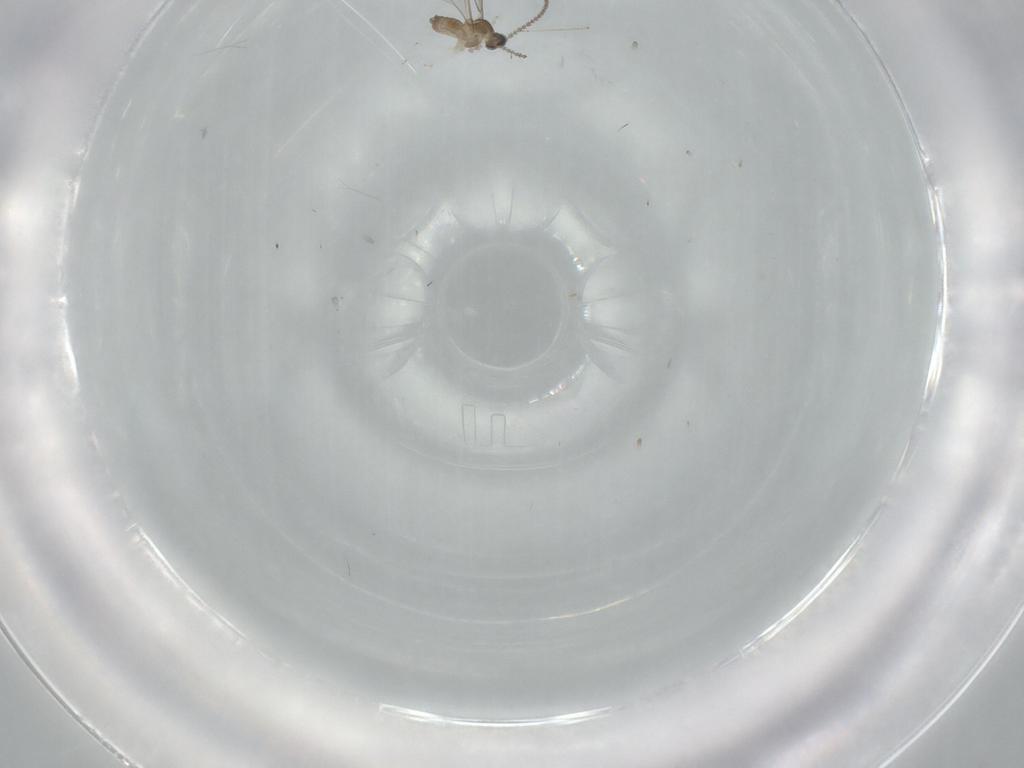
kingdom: Animalia
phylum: Arthropoda
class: Insecta
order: Diptera
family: Cecidomyiidae
